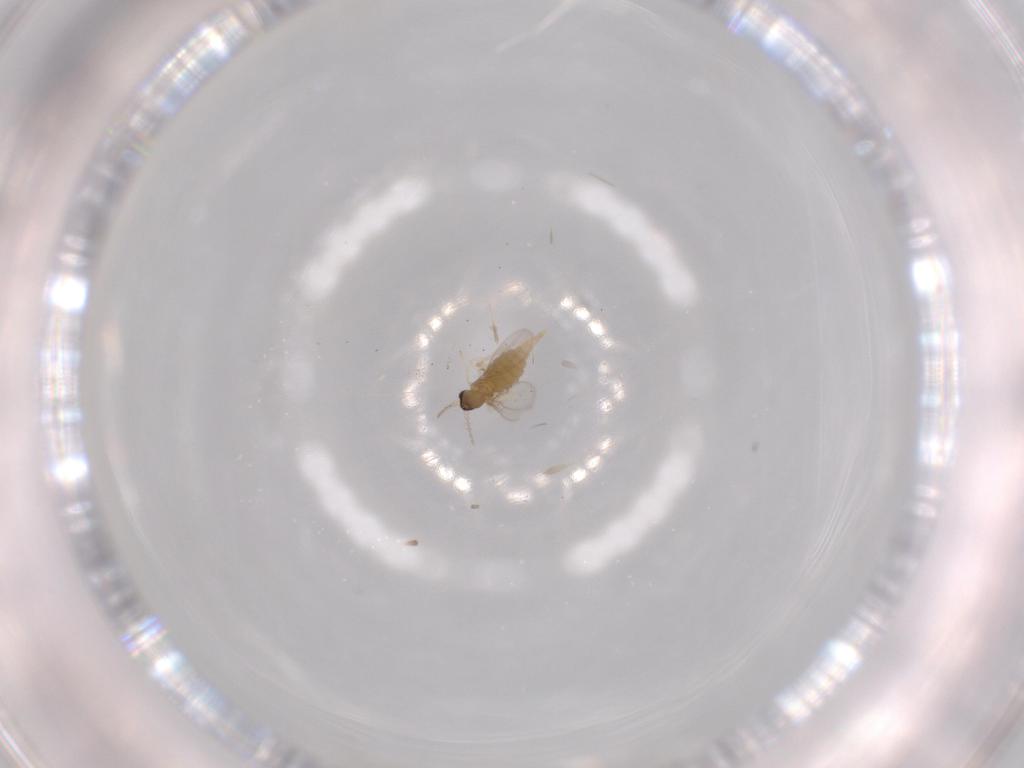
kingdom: Animalia
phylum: Arthropoda
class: Insecta
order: Diptera
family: Cecidomyiidae
